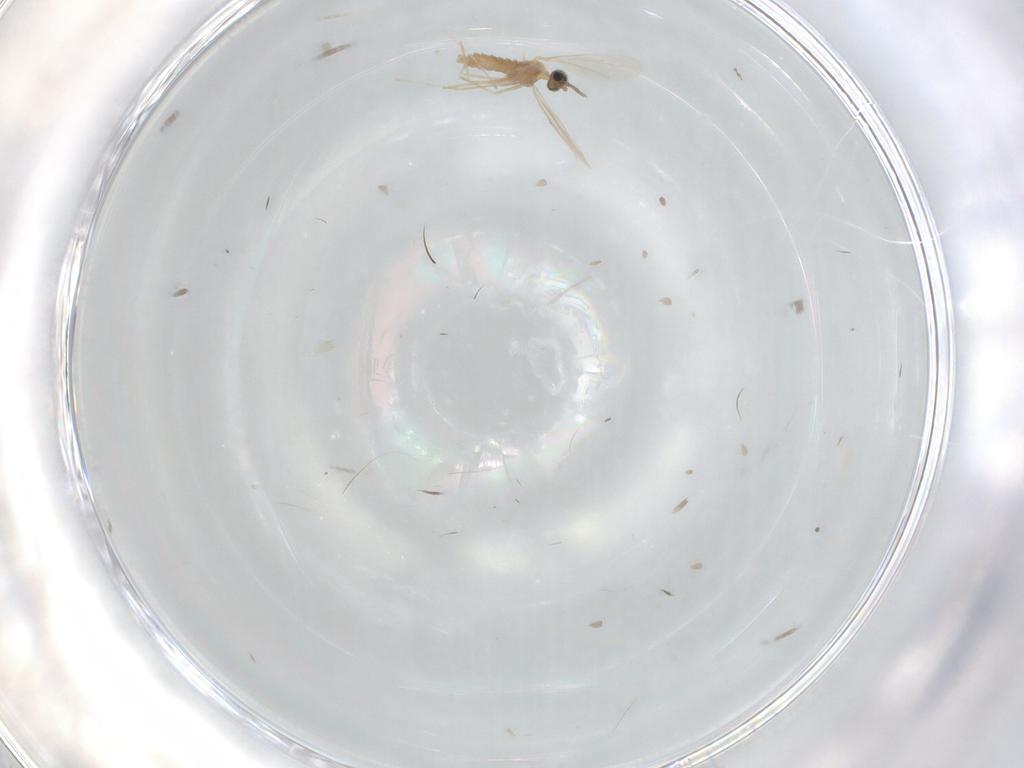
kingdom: Animalia
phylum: Arthropoda
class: Insecta
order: Diptera
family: Cecidomyiidae
